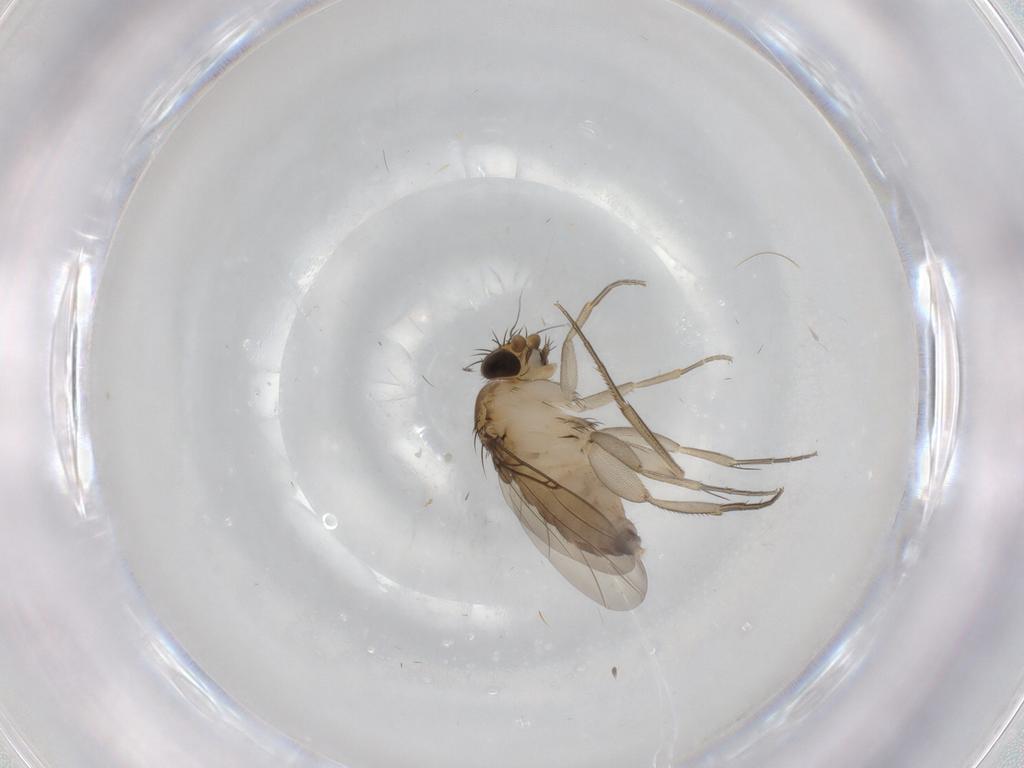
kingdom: Animalia
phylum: Arthropoda
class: Insecta
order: Diptera
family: Phoridae
